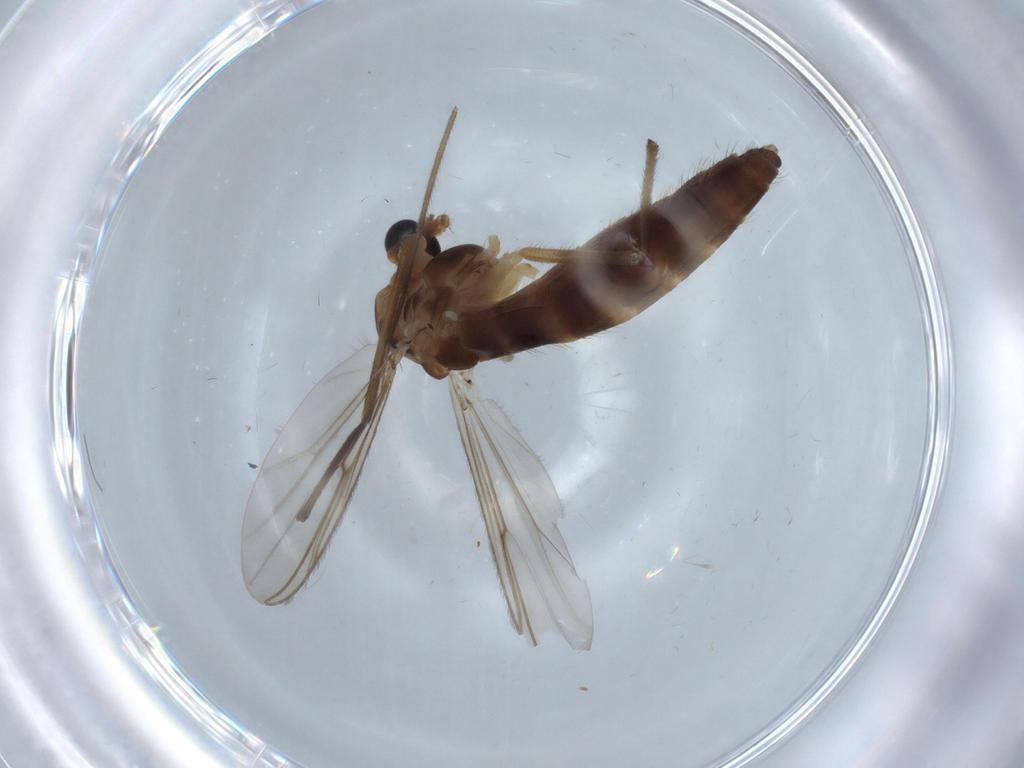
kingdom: Animalia
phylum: Arthropoda
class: Insecta
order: Diptera
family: Chironomidae
